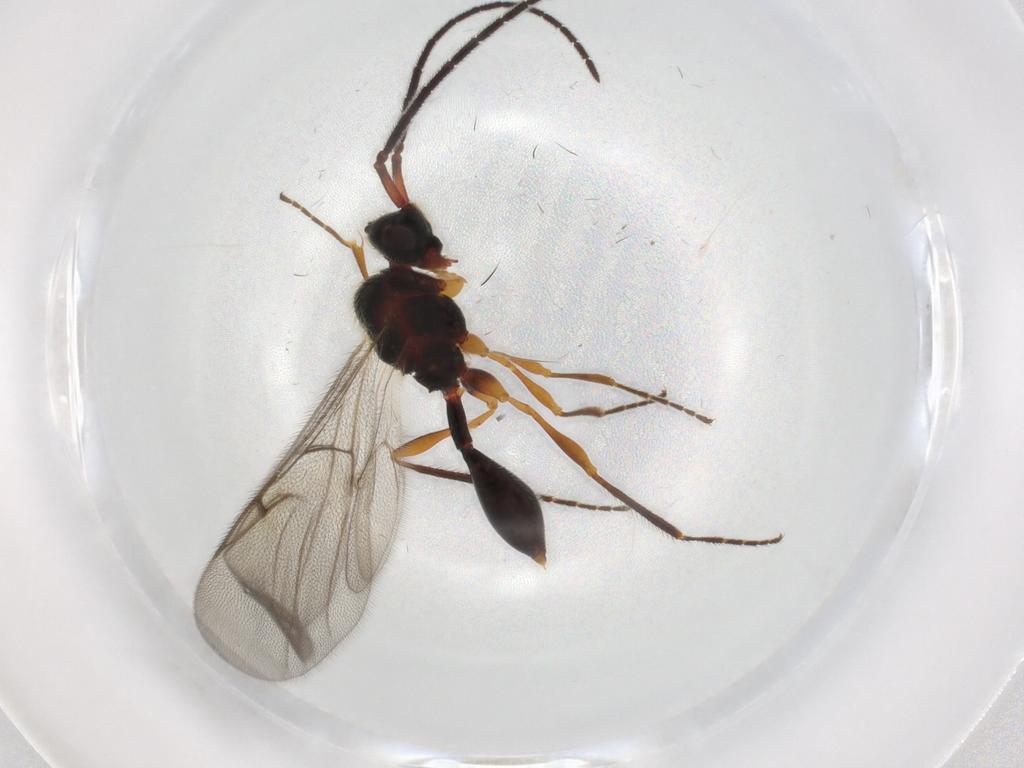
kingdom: Animalia
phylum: Arthropoda
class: Insecta
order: Hymenoptera
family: Diapriidae
